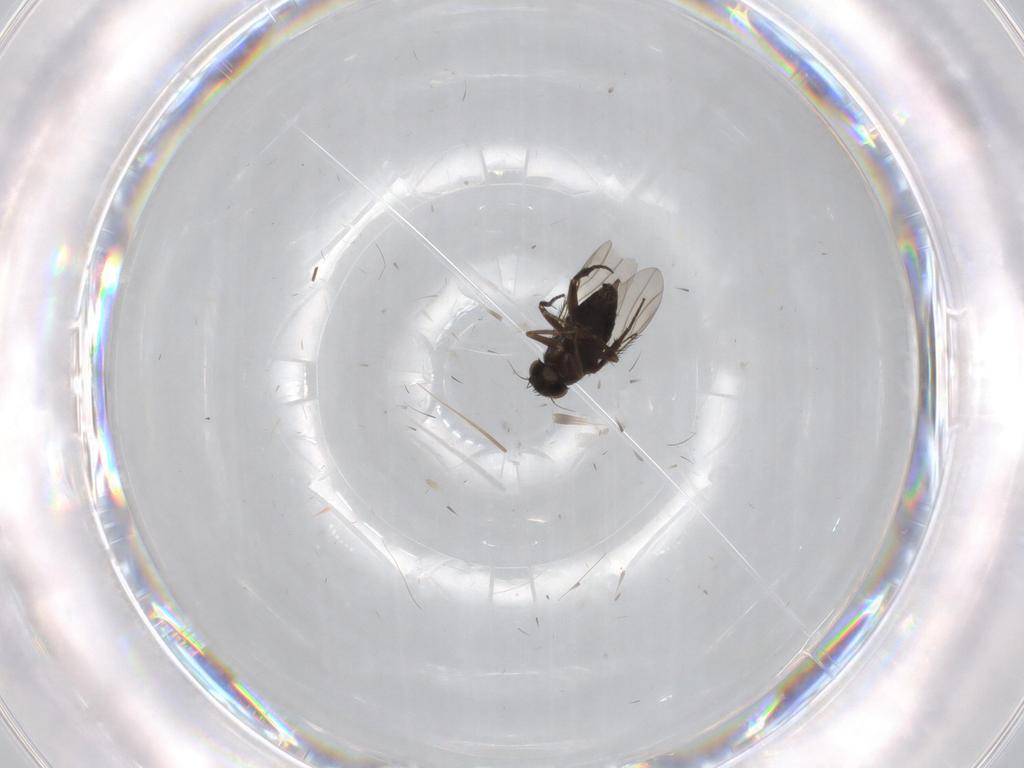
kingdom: Animalia
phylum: Arthropoda
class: Insecta
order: Diptera
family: Phoridae
